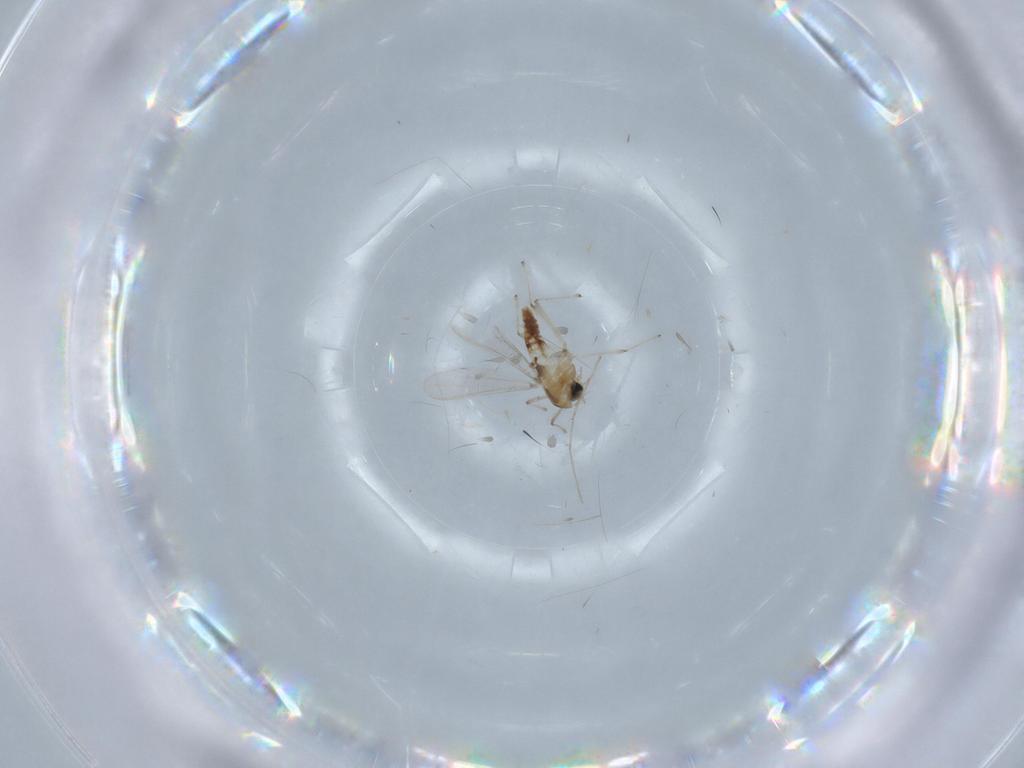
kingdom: Animalia
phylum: Arthropoda
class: Insecta
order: Diptera
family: Chironomidae
